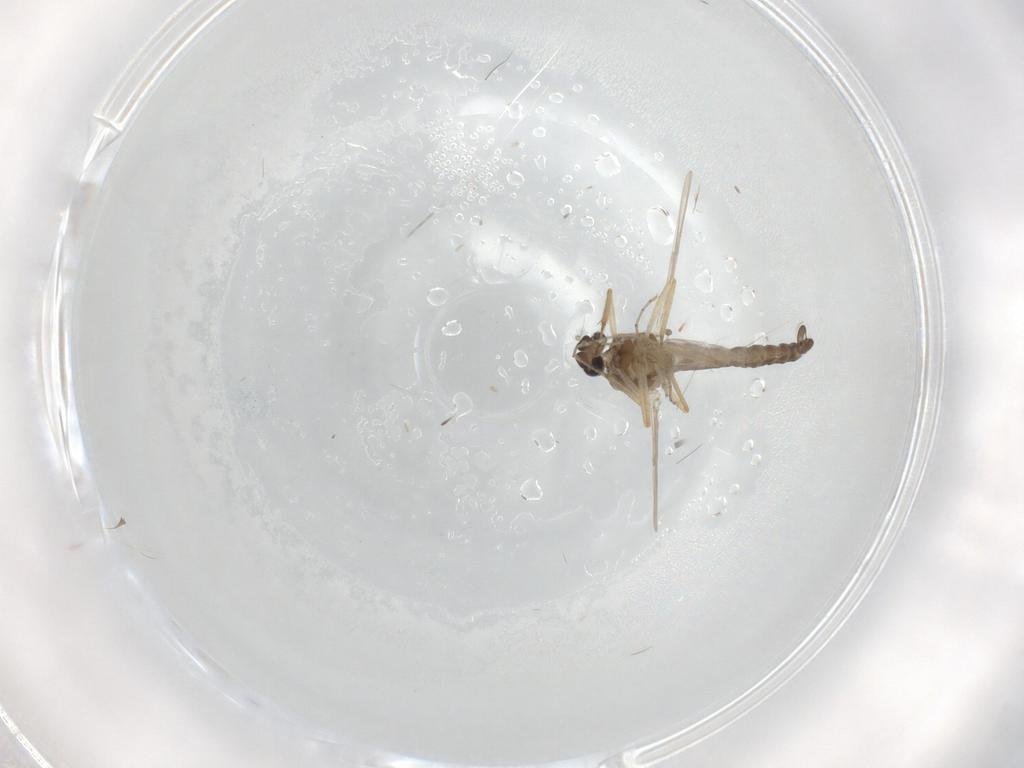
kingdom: Animalia
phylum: Arthropoda
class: Insecta
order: Diptera
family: Ceratopogonidae
